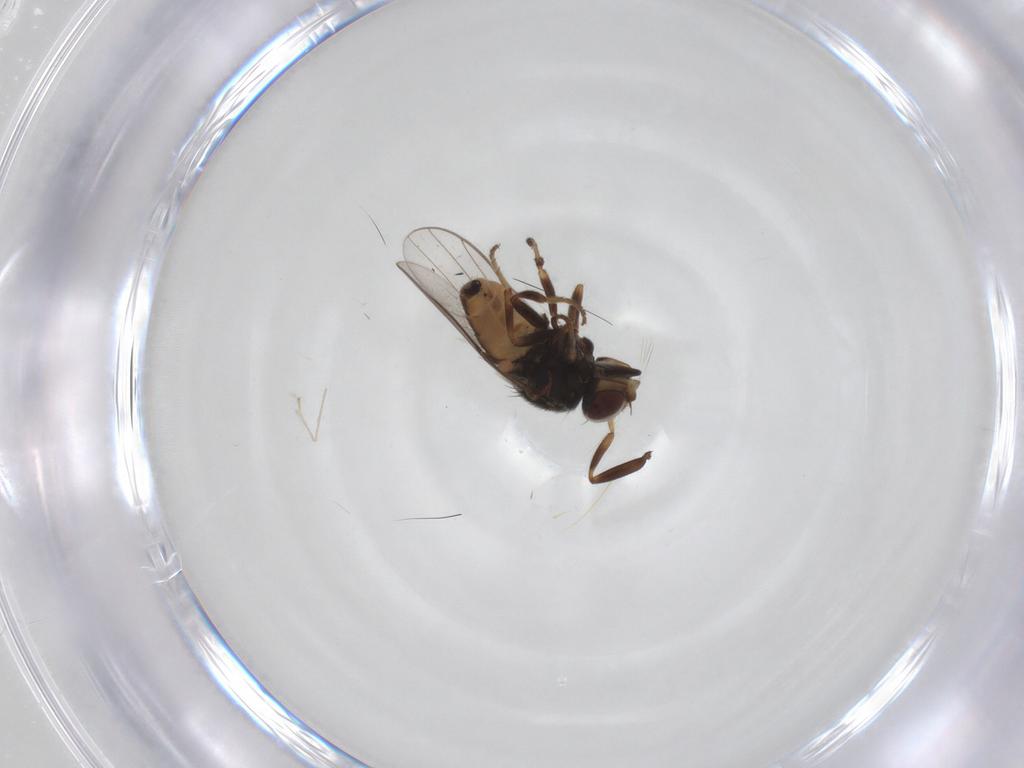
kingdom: Animalia
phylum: Arthropoda
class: Insecta
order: Diptera
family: Chloropidae
